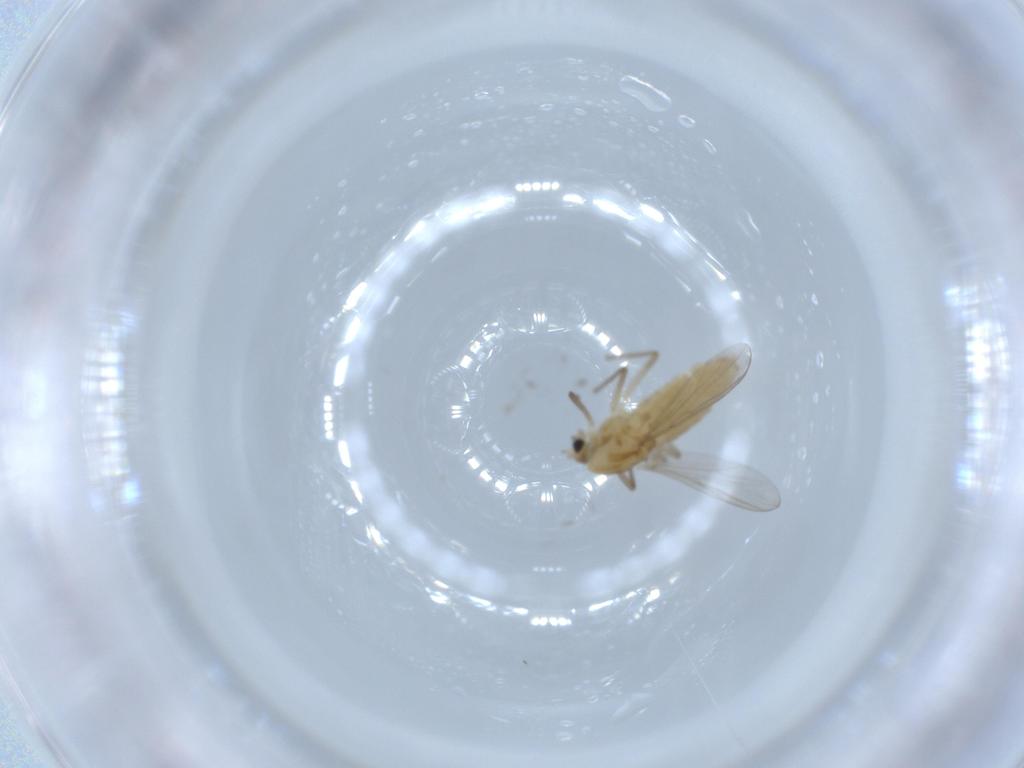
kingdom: Animalia
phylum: Arthropoda
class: Insecta
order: Diptera
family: Chironomidae
